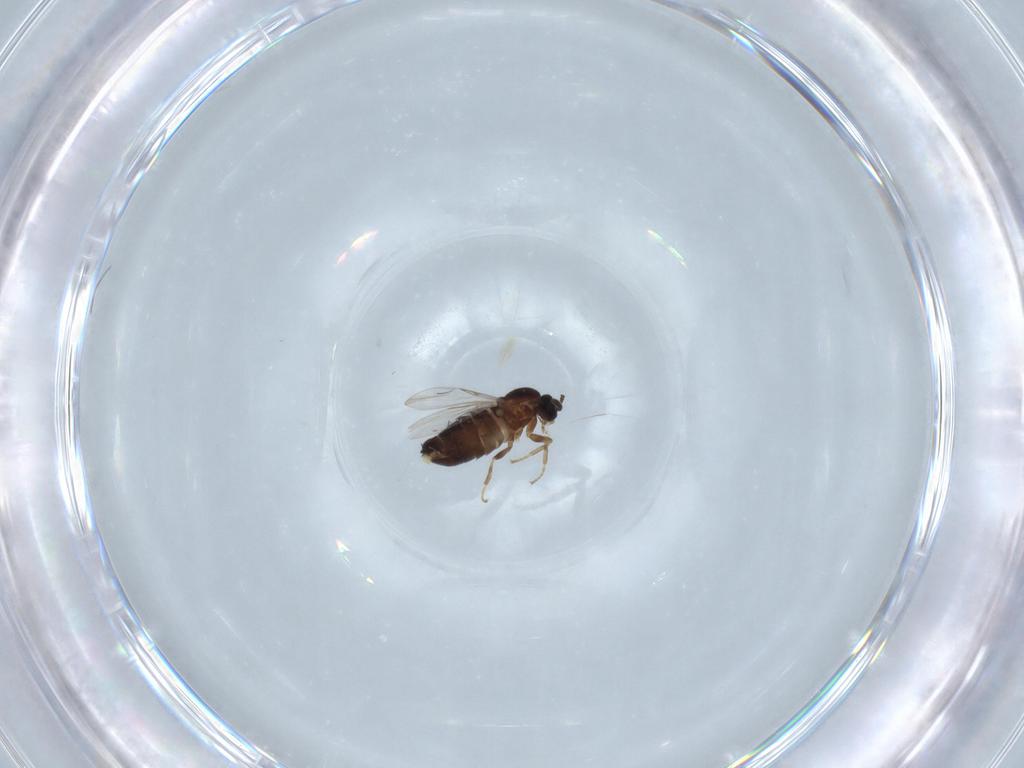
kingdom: Animalia
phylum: Arthropoda
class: Insecta
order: Diptera
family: Scatopsidae
